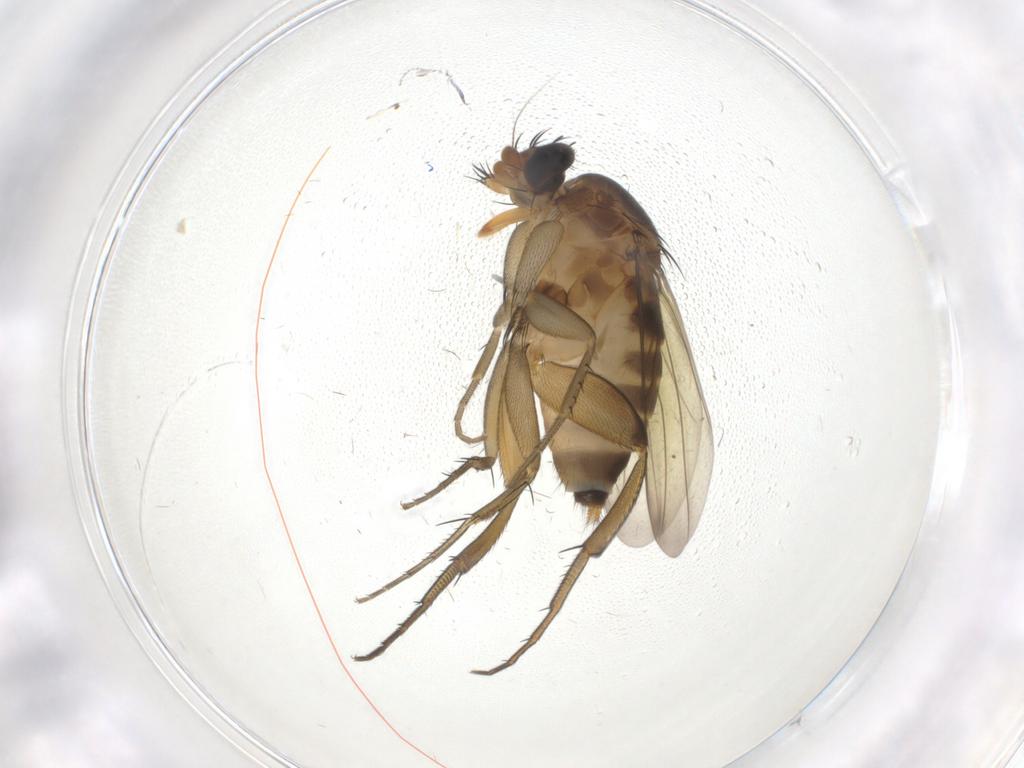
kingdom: Animalia
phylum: Arthropoda
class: Insecta
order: Diptera
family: Phoridae
